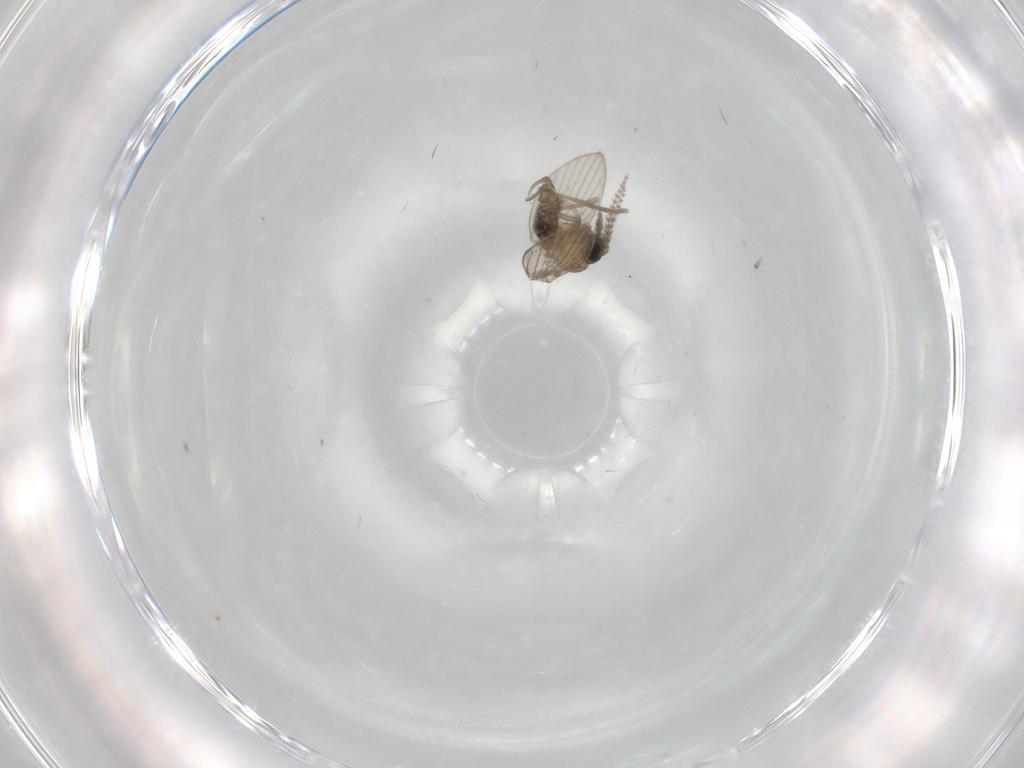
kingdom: Animalia
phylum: Arthropoda
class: Insecta
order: Diptera
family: Psychodidae
